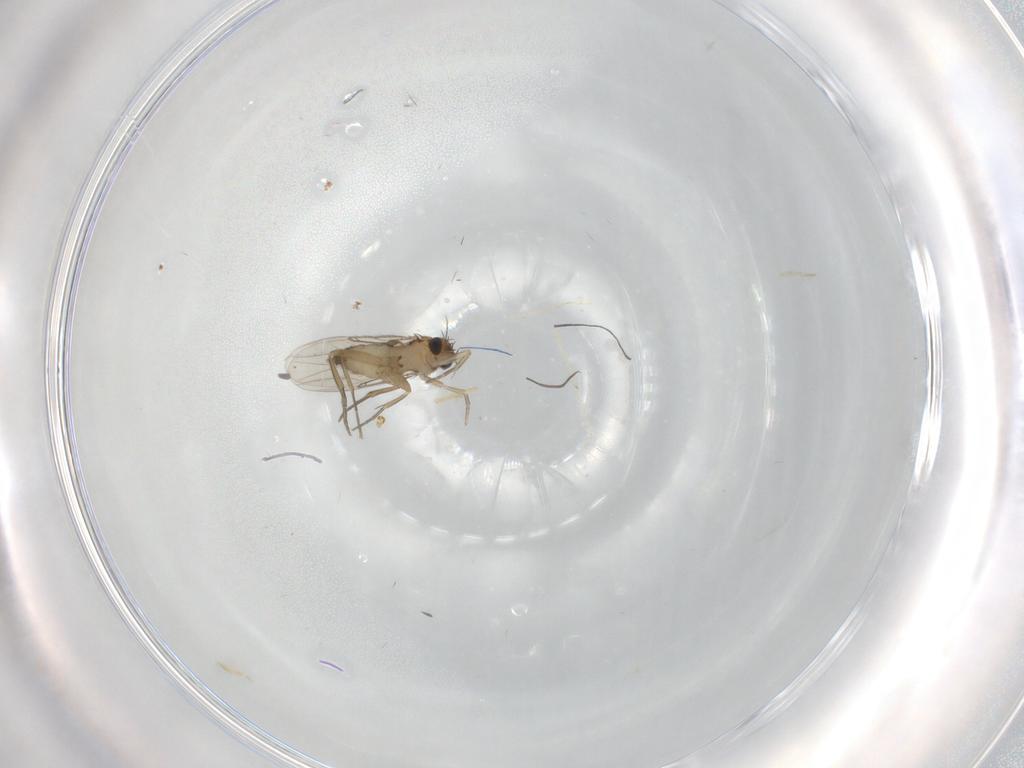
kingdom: Animalia
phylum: Arthropoda
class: Insecta
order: Diptera
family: Phoridae
